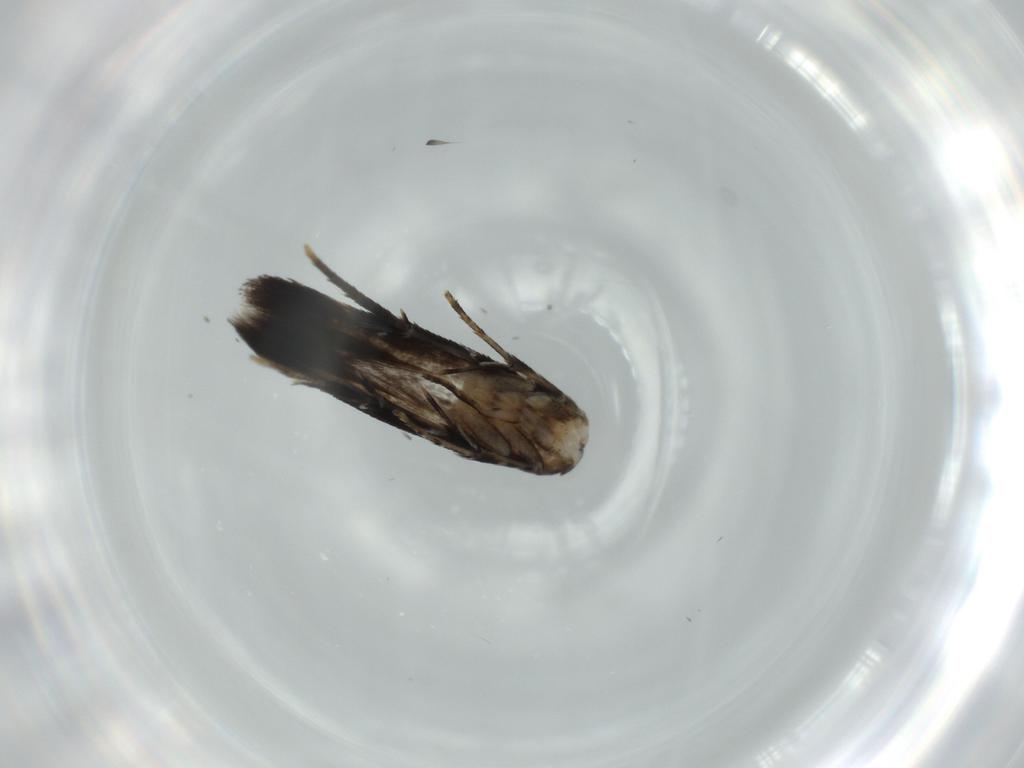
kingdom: Animalia
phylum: Arthropoda
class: Insecta
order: Lepidoptera
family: Momphidae
